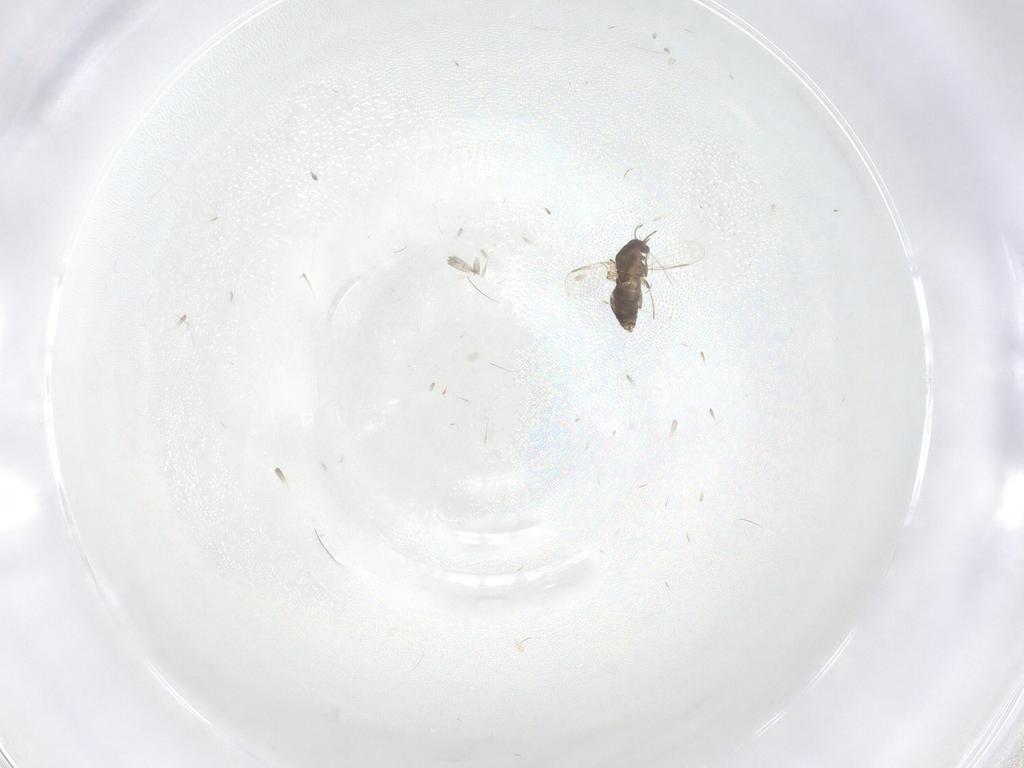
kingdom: Animalia
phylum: Arthropoda
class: Insecta
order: Diptera
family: Chironomidae
